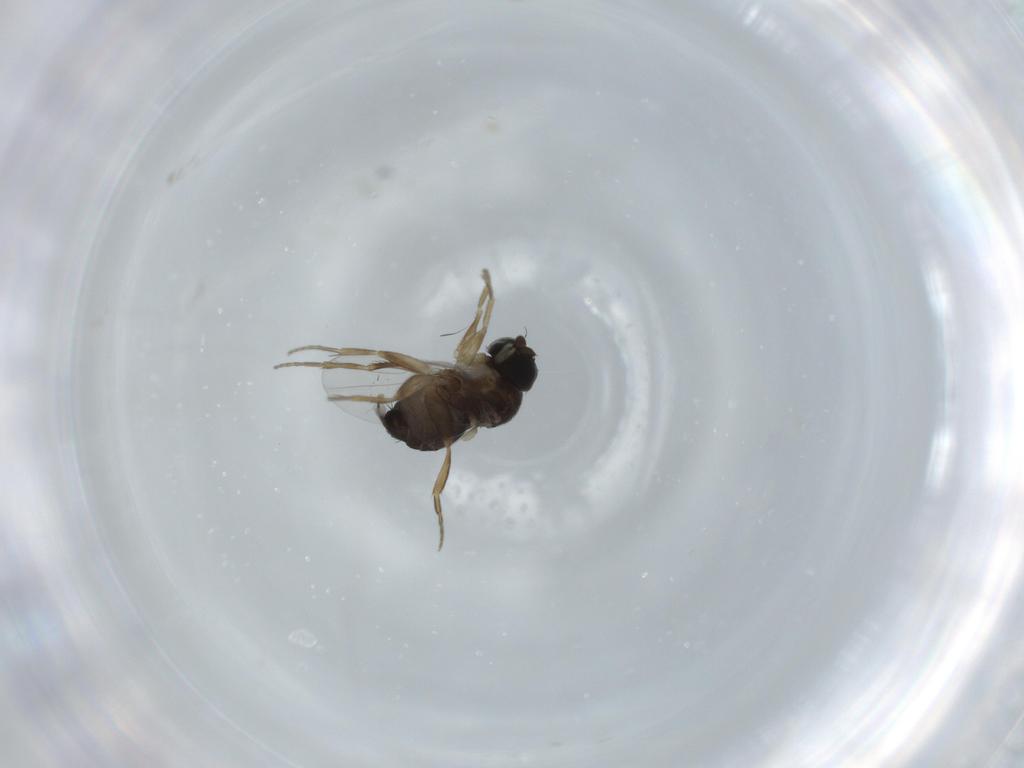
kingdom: Animalia
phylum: Arthropoda
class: Insecta
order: Diptera
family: Phoridae
